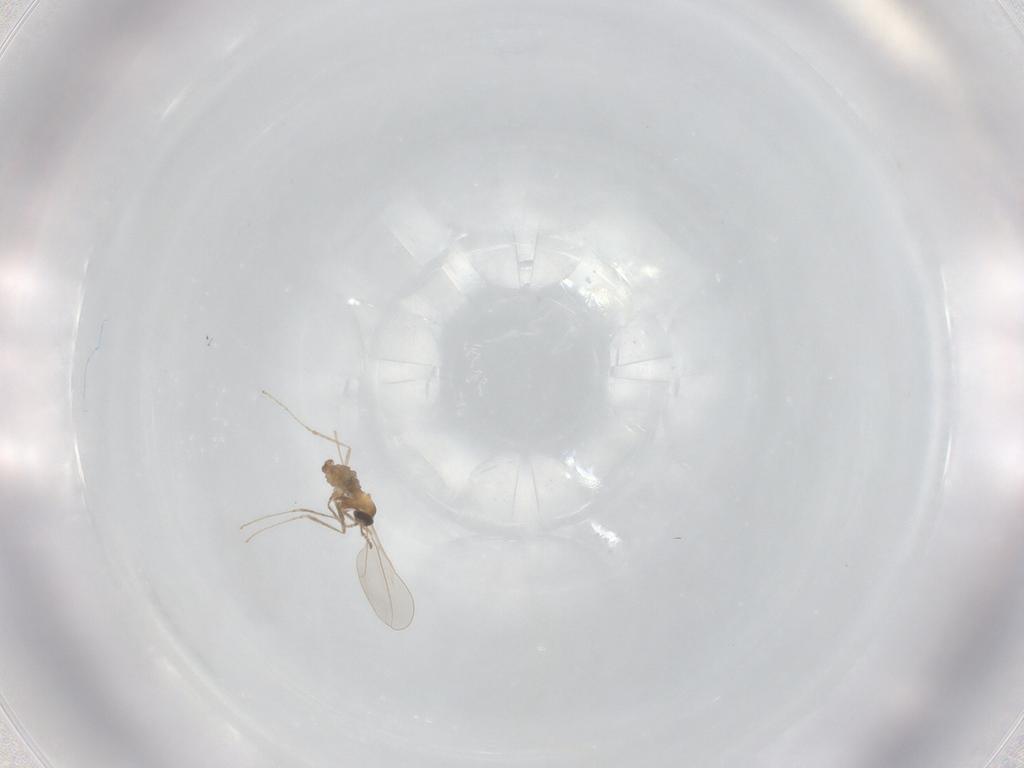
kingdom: Animalia
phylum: Arthropoda
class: Insecta
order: Diptera
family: Cecidomyiidae
